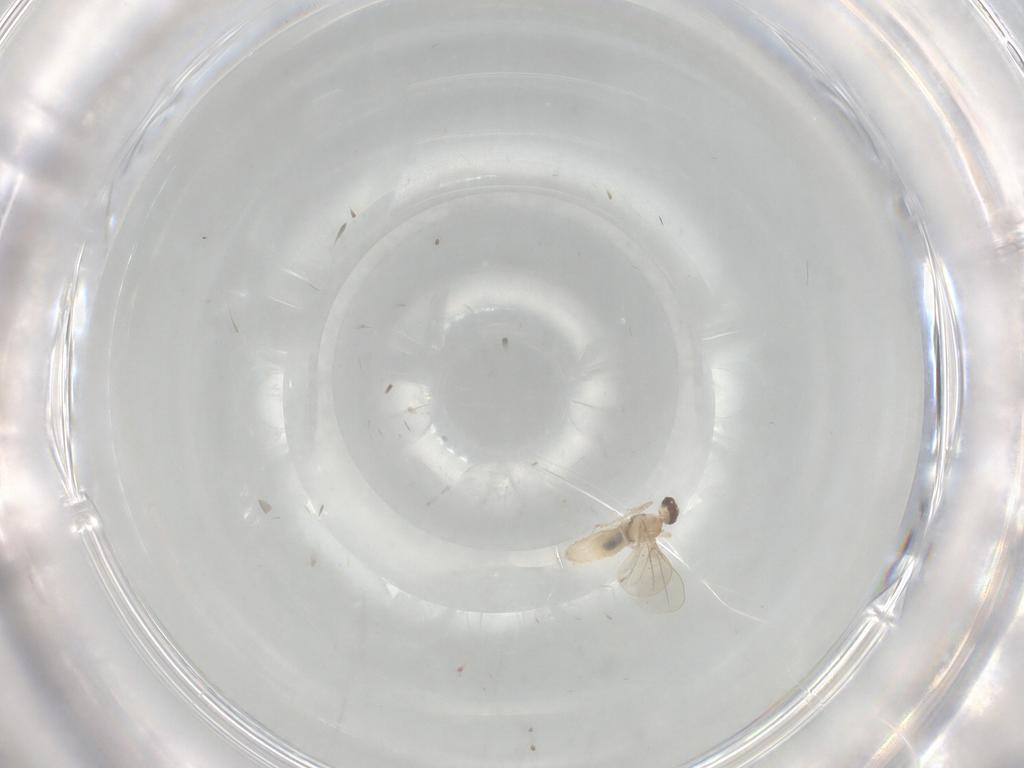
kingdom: Animalia
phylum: Arthropoda
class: Insecta
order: Diptera
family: Cecidomyiidae
